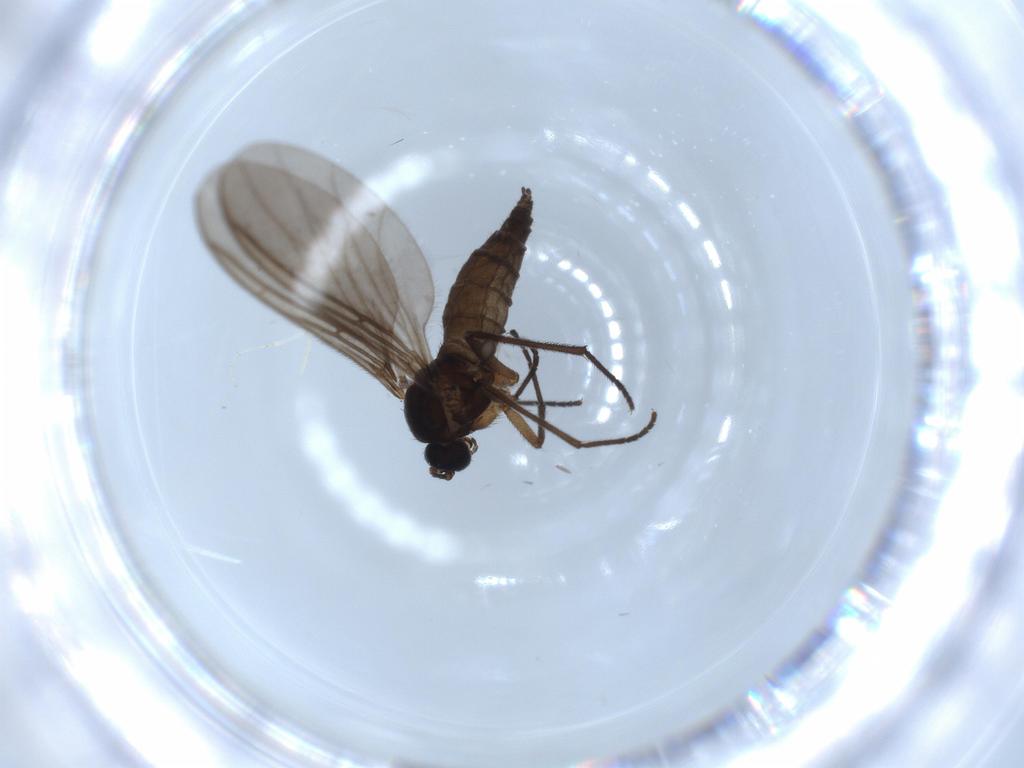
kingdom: Animalia
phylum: Arthropoda
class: Insecta
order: Diptera
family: Sciaridae
